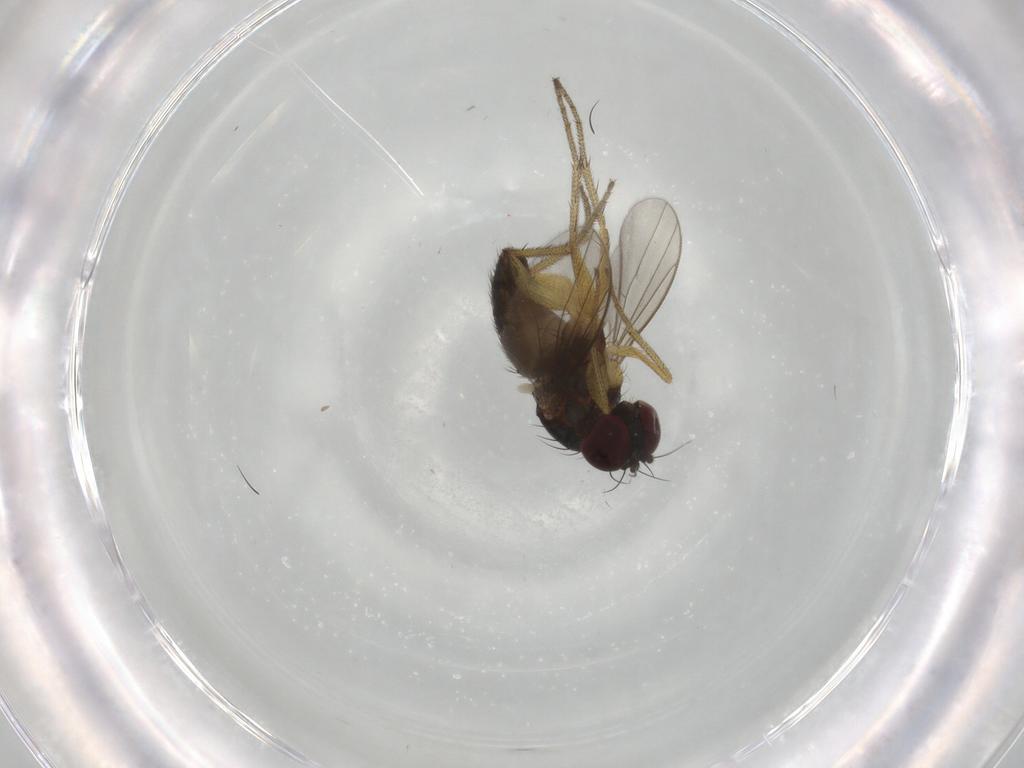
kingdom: Animalia
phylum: Arthropoda
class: Insecta
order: Diptera
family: Dolichopodidae
